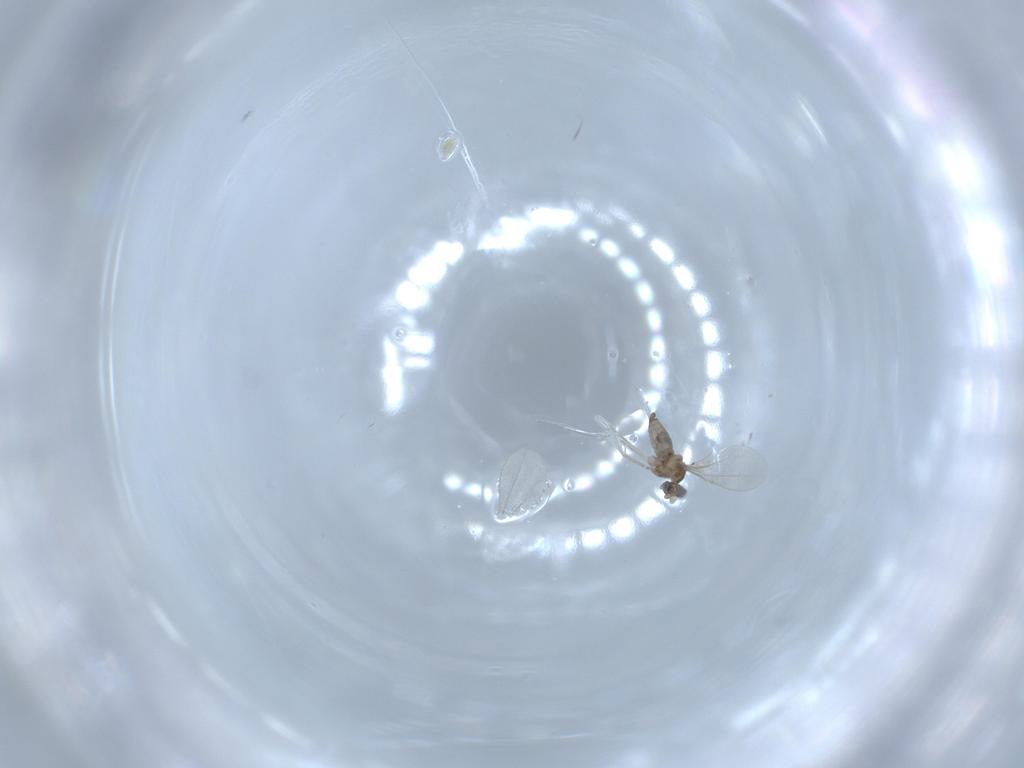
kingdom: Animalia
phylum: Arthropoda
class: Insecta
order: Diptera
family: Cecidomyiidae
